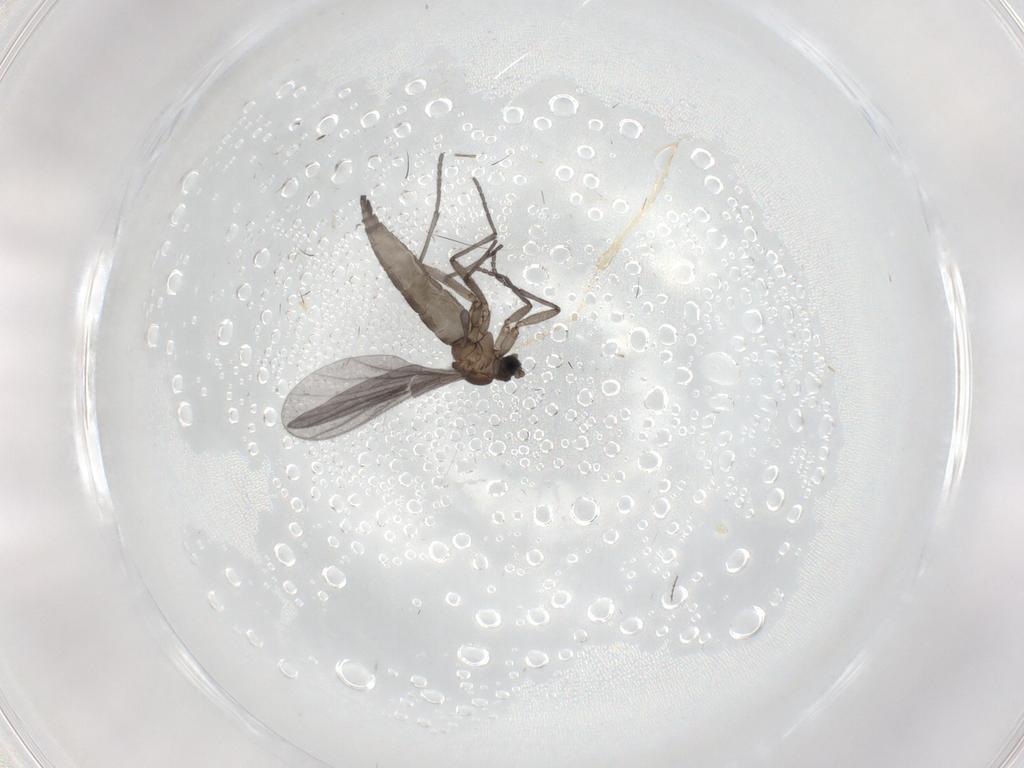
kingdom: Animalia
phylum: Arthropoda
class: Insecta
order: Diptera
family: Sciaridae
